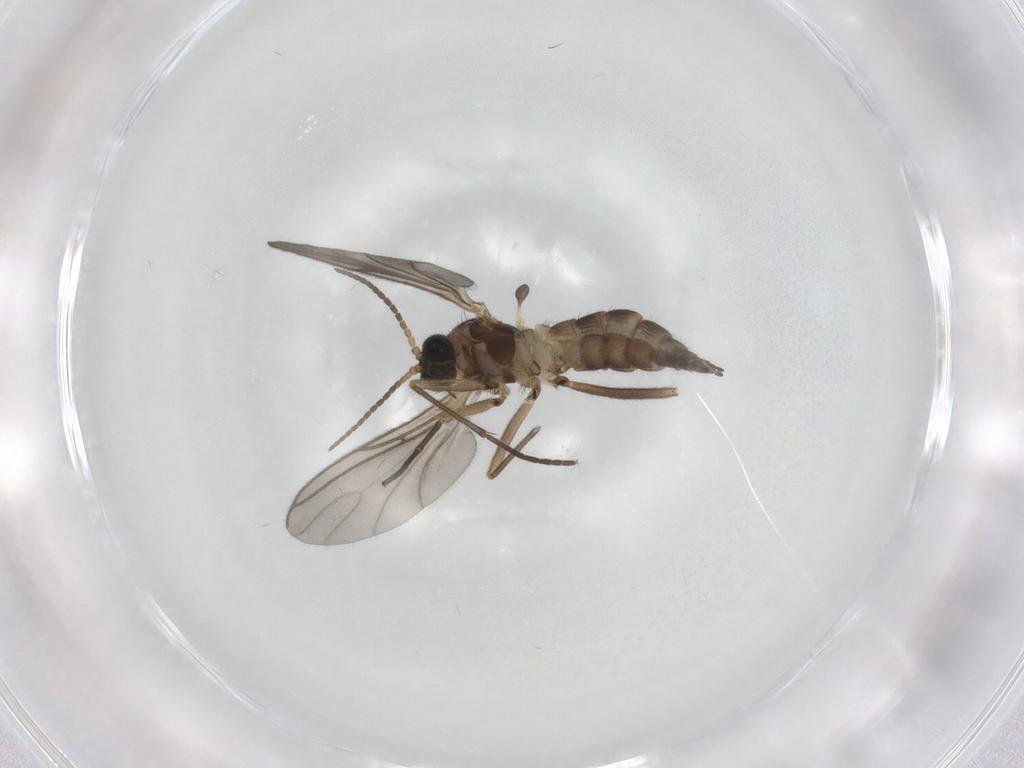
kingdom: Animalia
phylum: Arthropoda
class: Insecta
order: Diptera
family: Sciaridae
